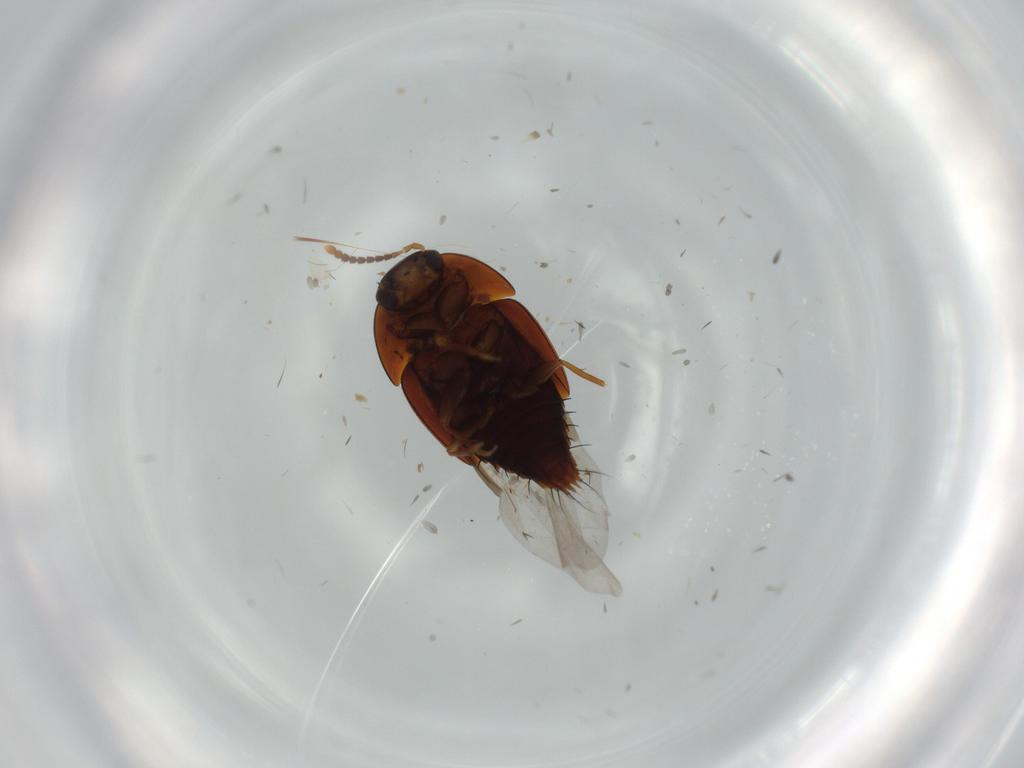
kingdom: Animalia
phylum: Arthropoda
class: Insecta
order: Coleoptera
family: Staphylinidae
